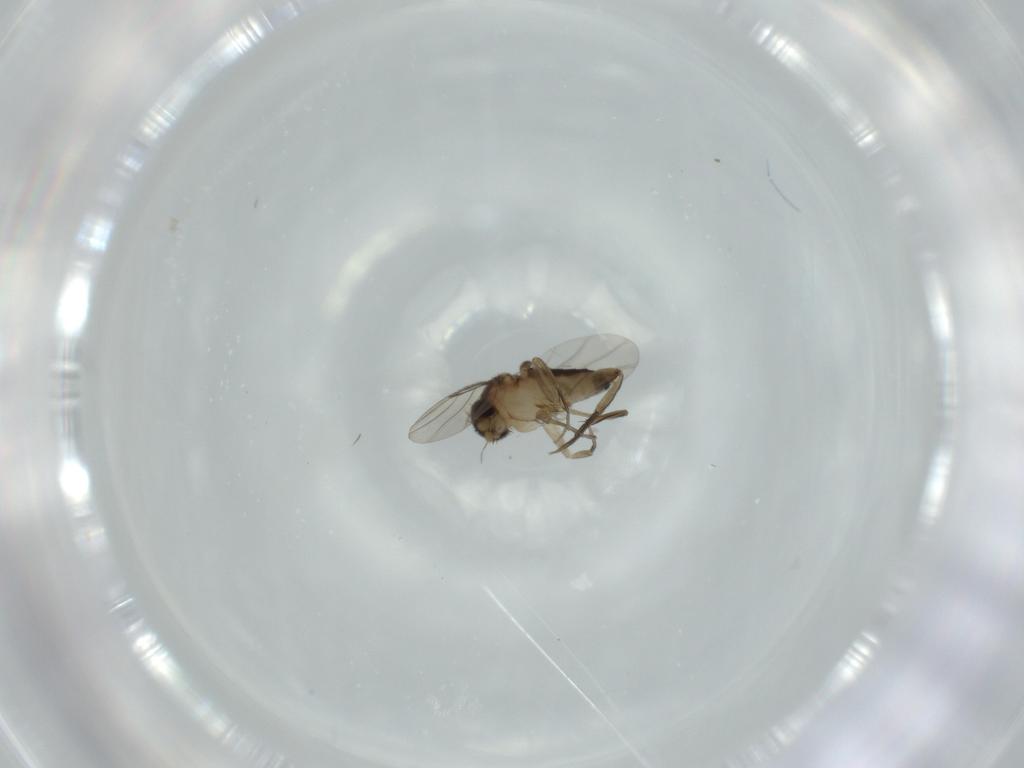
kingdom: Animalia
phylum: Arthropoda
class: Insecta
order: Diptera
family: Phoridae
